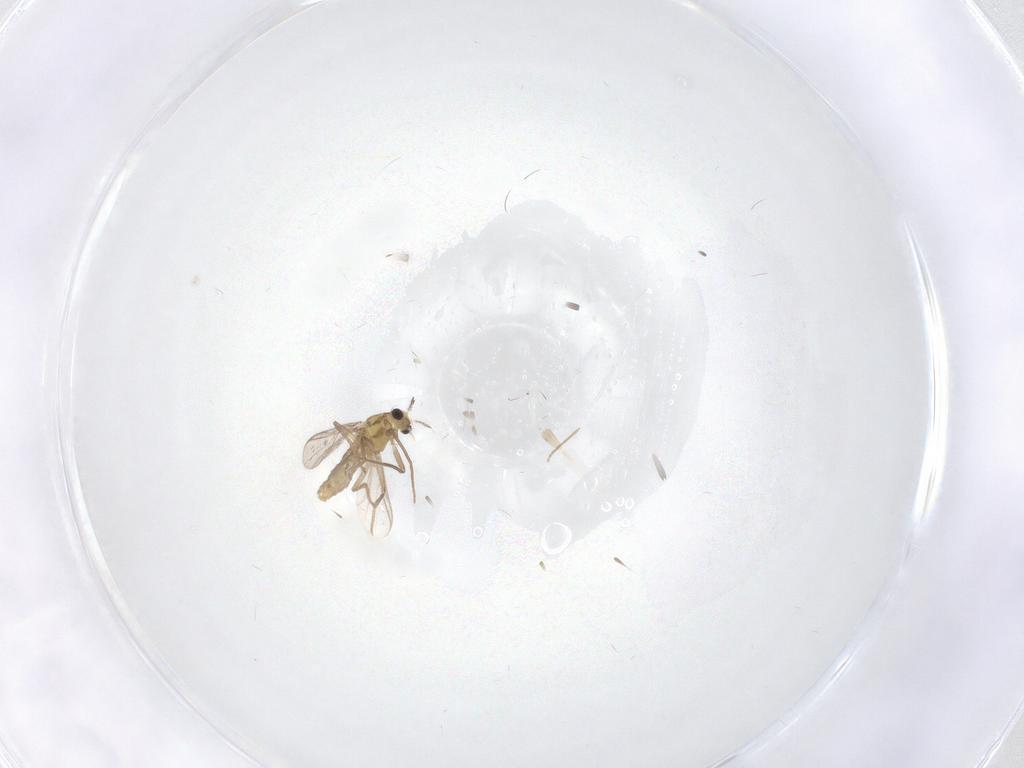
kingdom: Animalia
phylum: Arthropoda
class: Insecta
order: Diptera
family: Chironomidae
